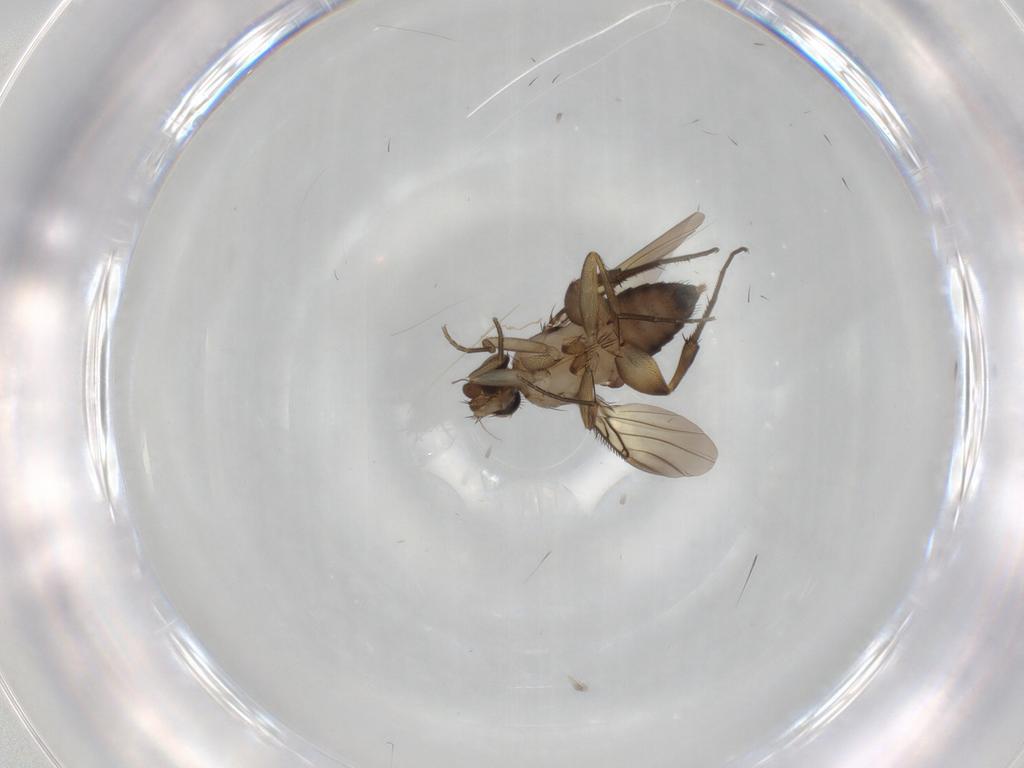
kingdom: Animalia
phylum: Arthropoda
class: Insecta
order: Diptera
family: Phoridae
